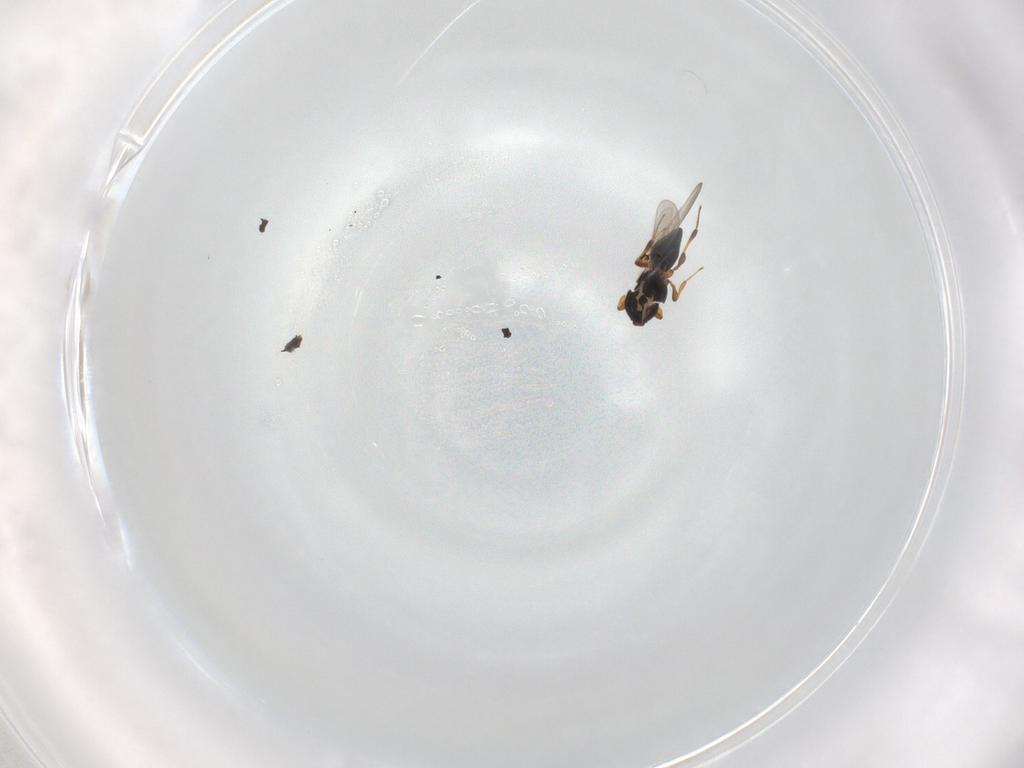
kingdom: Animalia
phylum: Arthropoda
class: Insecta
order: Hymenoptera
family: Platygastridae
